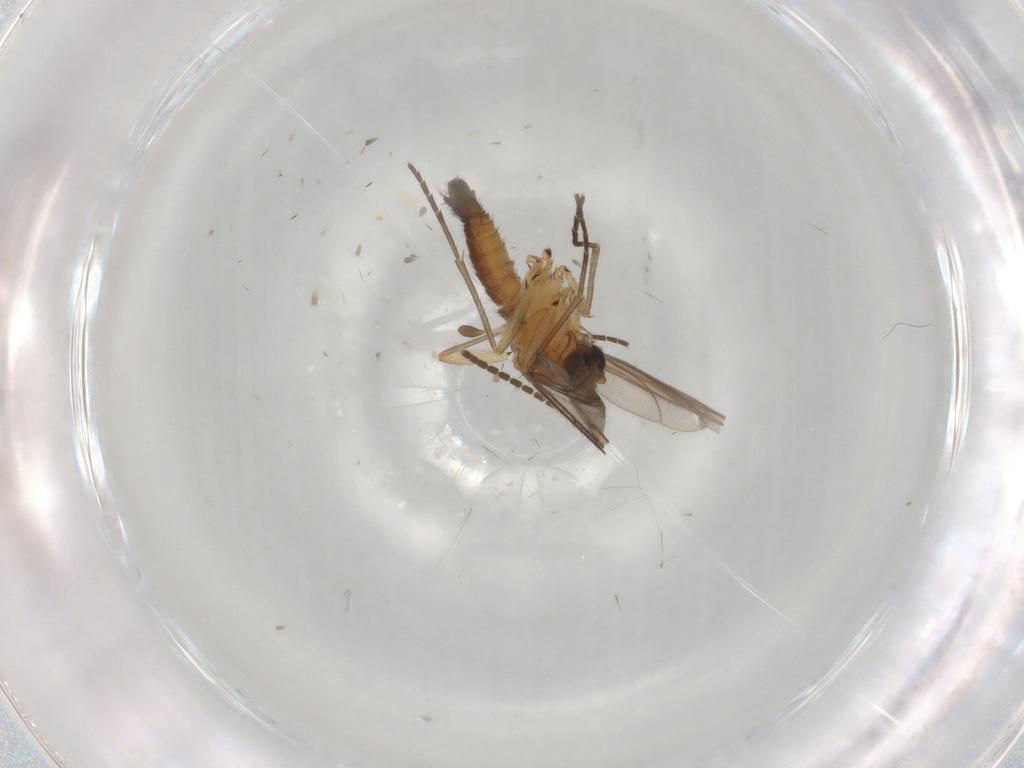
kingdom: Animalia
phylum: Arthropoda
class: Insecta
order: Diptera
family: Sciaridae
